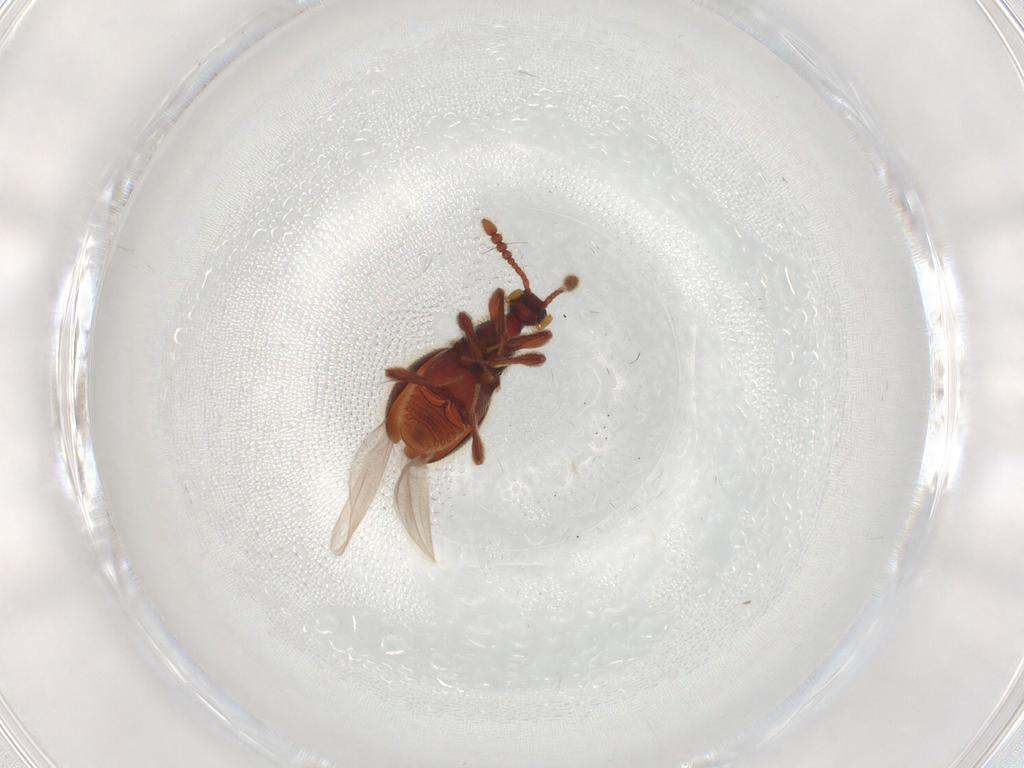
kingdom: Animalia
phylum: Arthropoda
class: Insecta
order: Coleoptera
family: Lycidae
